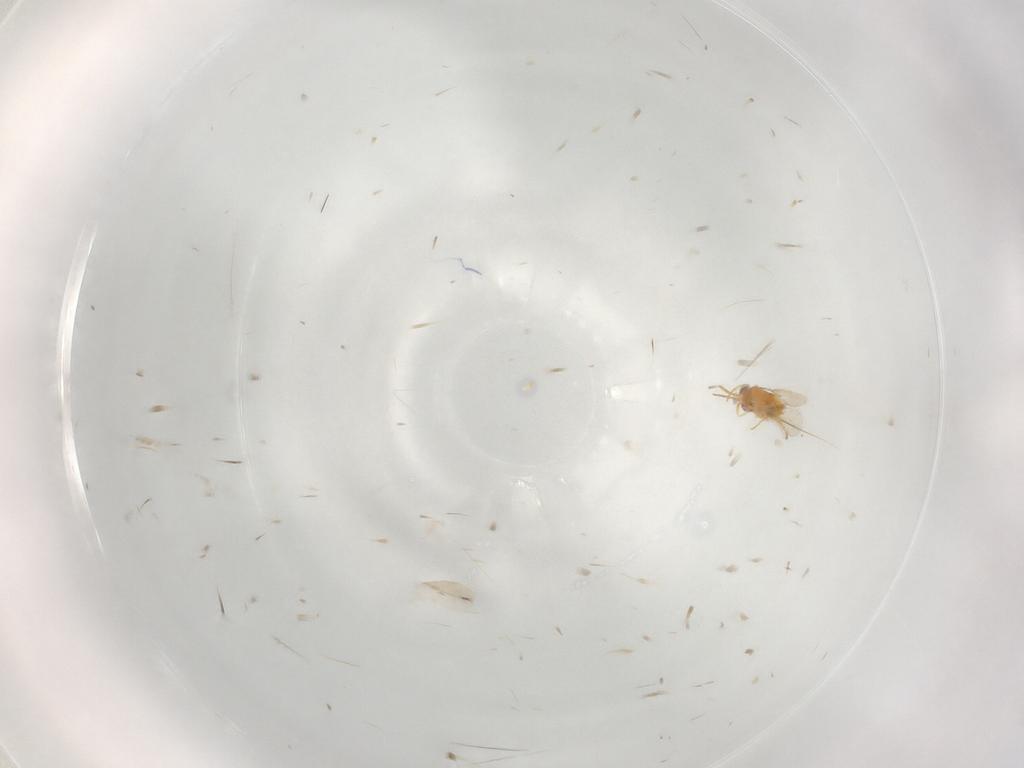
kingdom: Animalia
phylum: Arthropoda
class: Insecta
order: Hymenoptera
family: Aphelinidae
